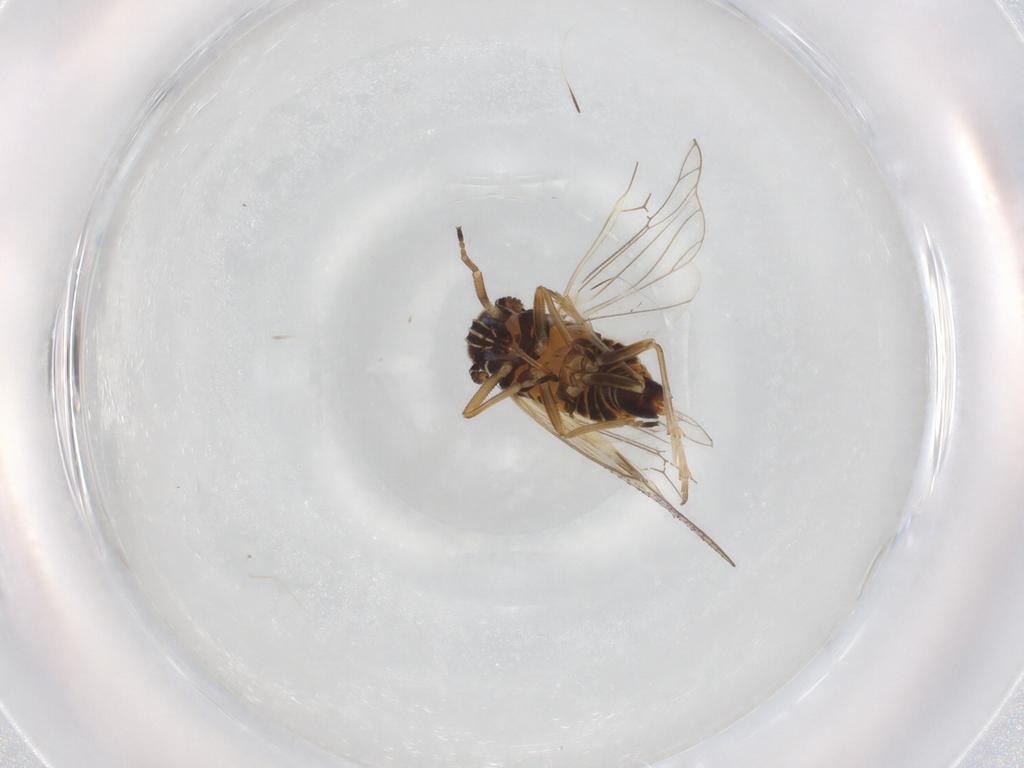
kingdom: Animalia
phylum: Arthropoda
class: Insecta
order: Hemiptera
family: Delphacidae
